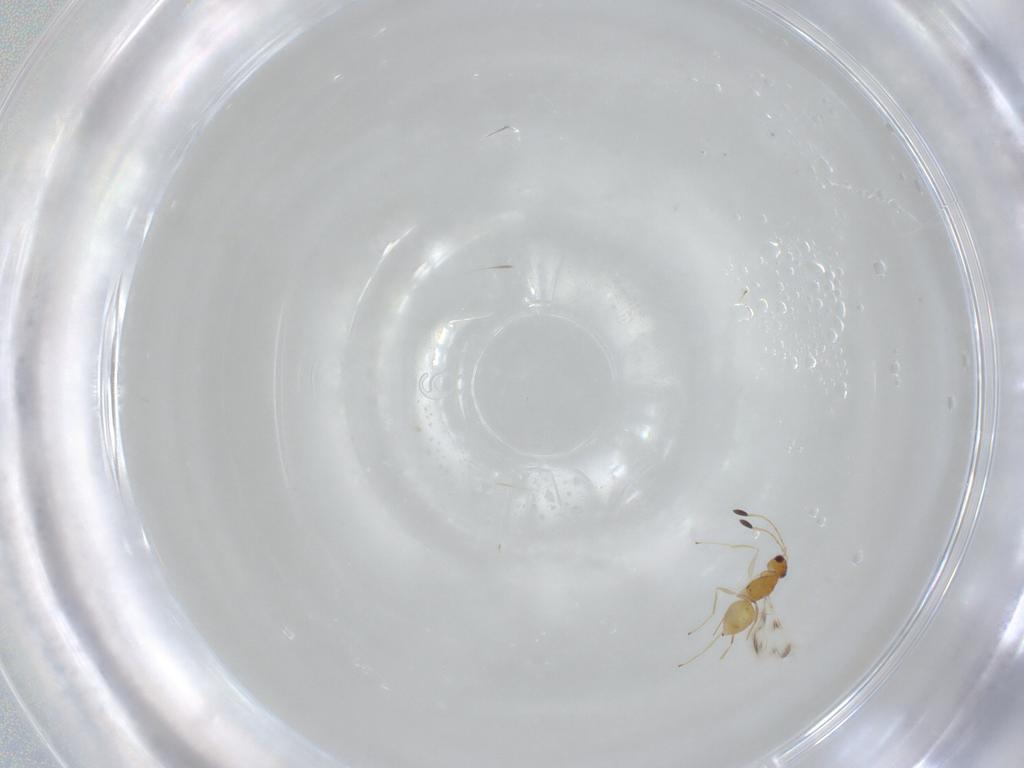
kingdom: Animalia
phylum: Arthropoda
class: Insecta
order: Hymenoptera
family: Mymaridae
